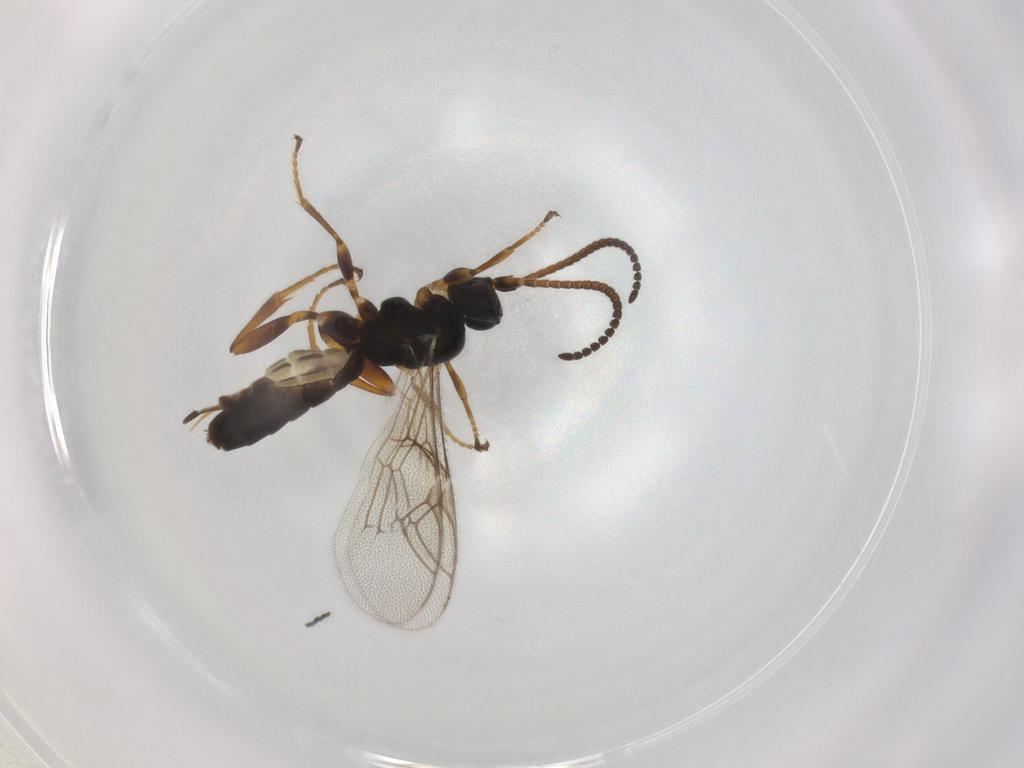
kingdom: Animalia
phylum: Arthropoda
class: Insecta
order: Hymenoptera
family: Ichneumonidae
